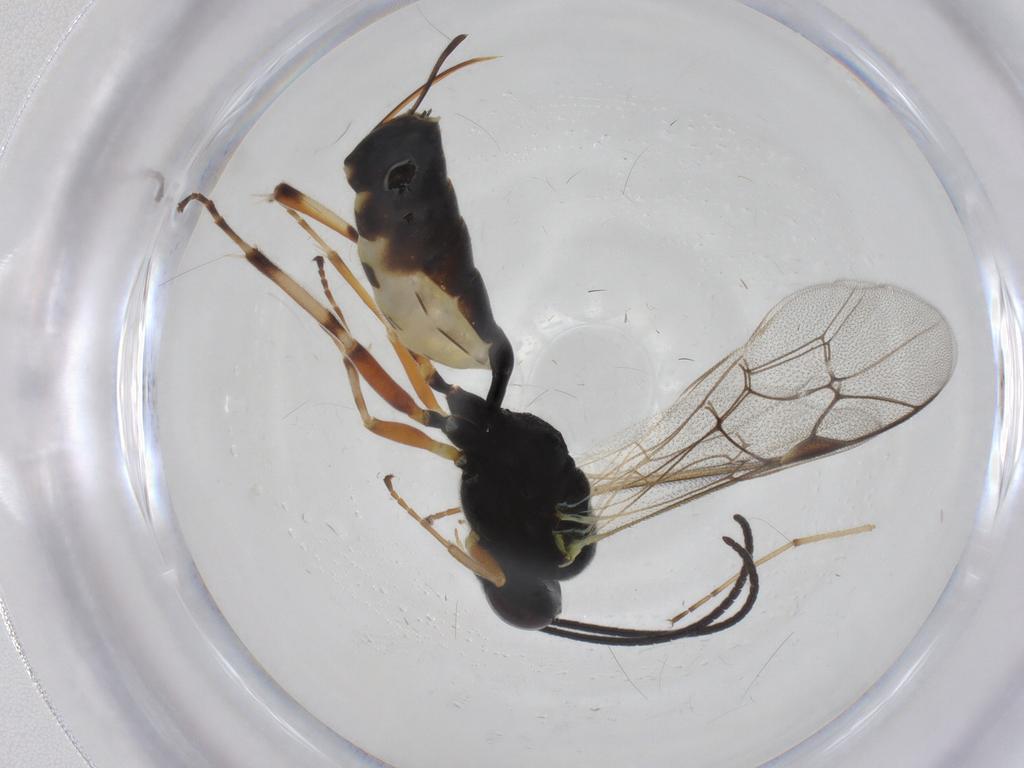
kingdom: Animalia
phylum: Arthropoda
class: Insecta
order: Hymenoptera
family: Ichneumonidae
